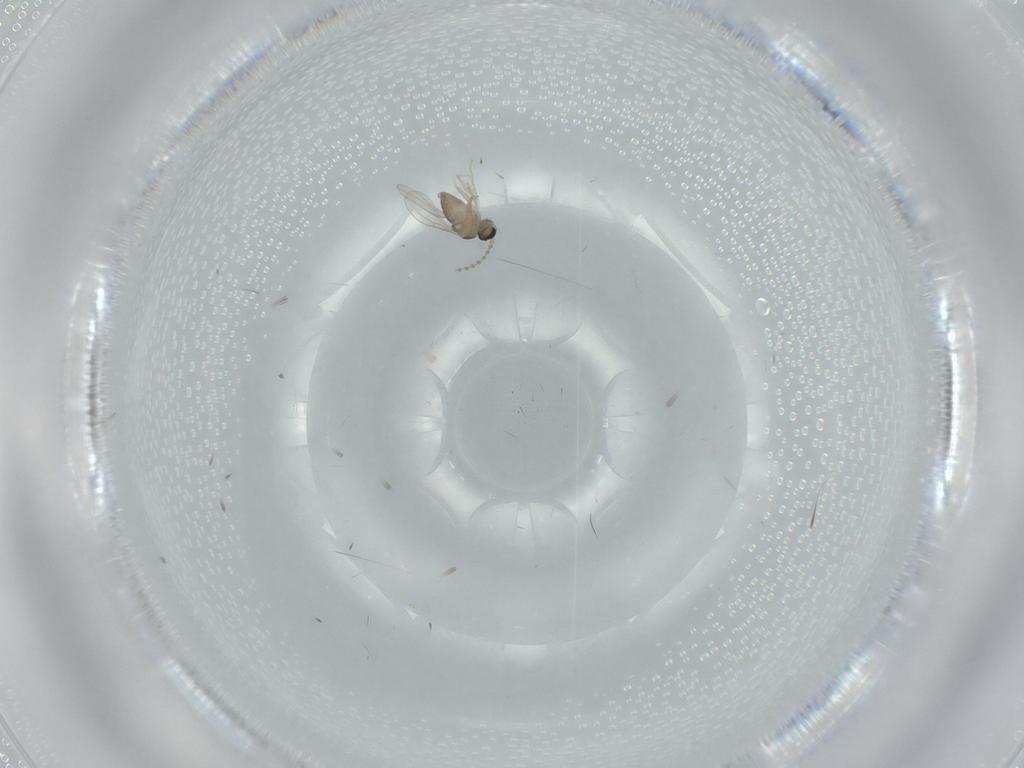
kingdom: Animalia
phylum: Arthropoda
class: Insecta
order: Diptera
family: Cecidomyiidae
